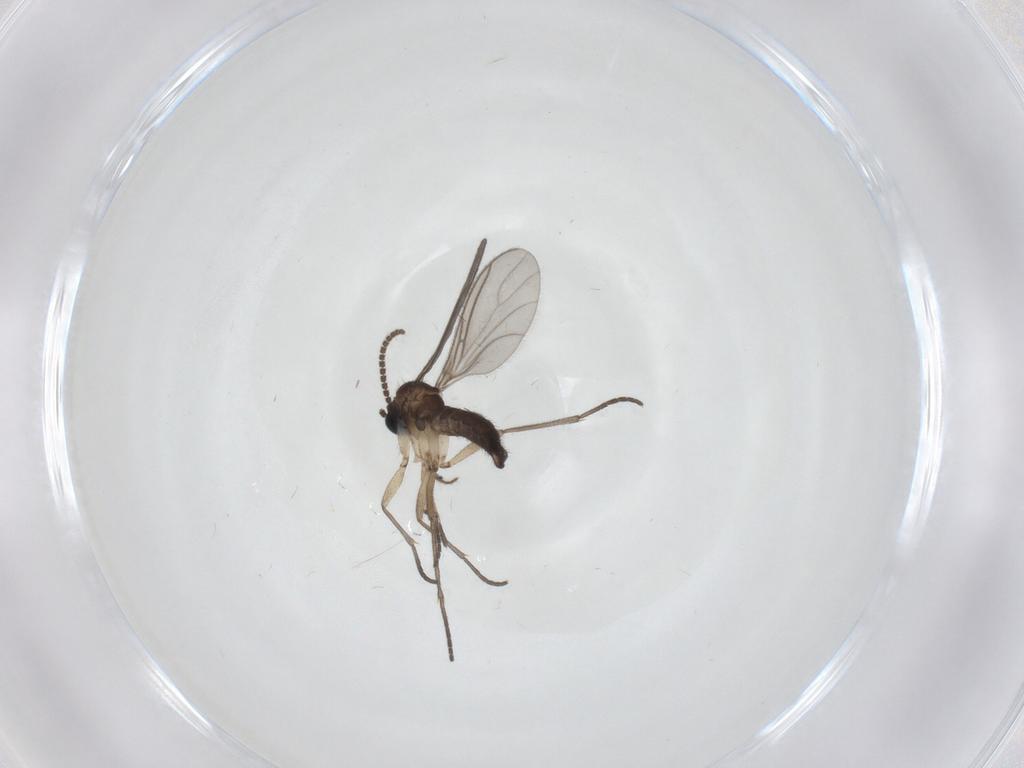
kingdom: Animalia
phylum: Arthropoda
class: Insecta
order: Diptera
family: Sciaridae
